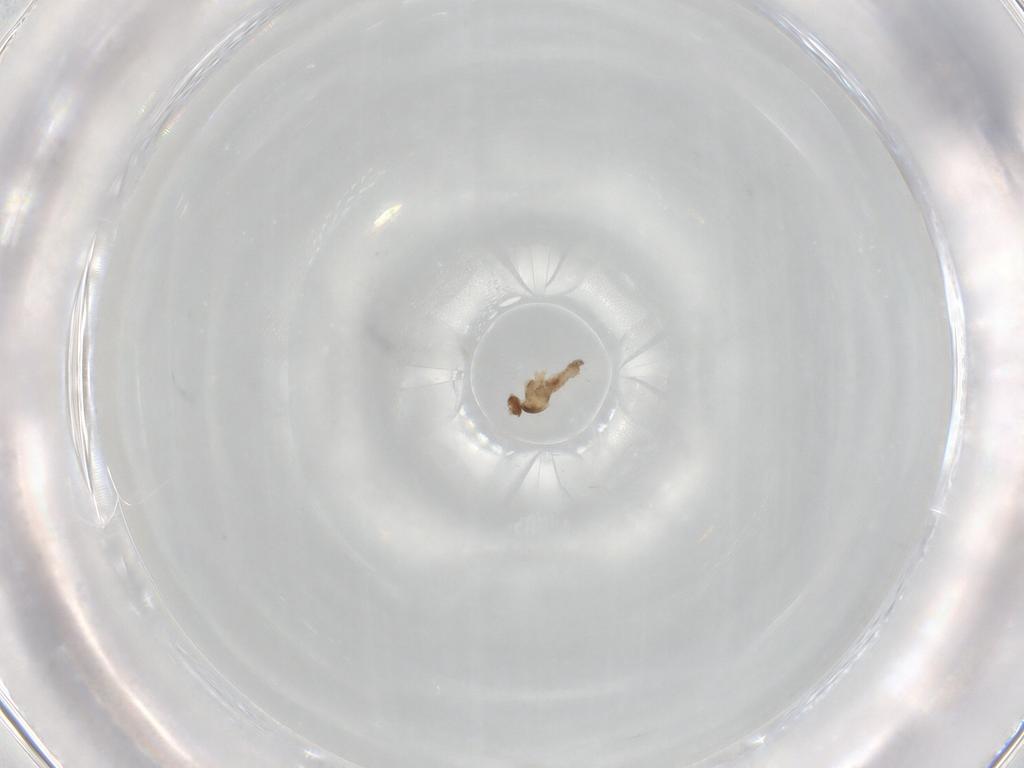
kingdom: Animalia
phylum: Arthropoda
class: Insecta
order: Diptera
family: Cecidomyiidae
